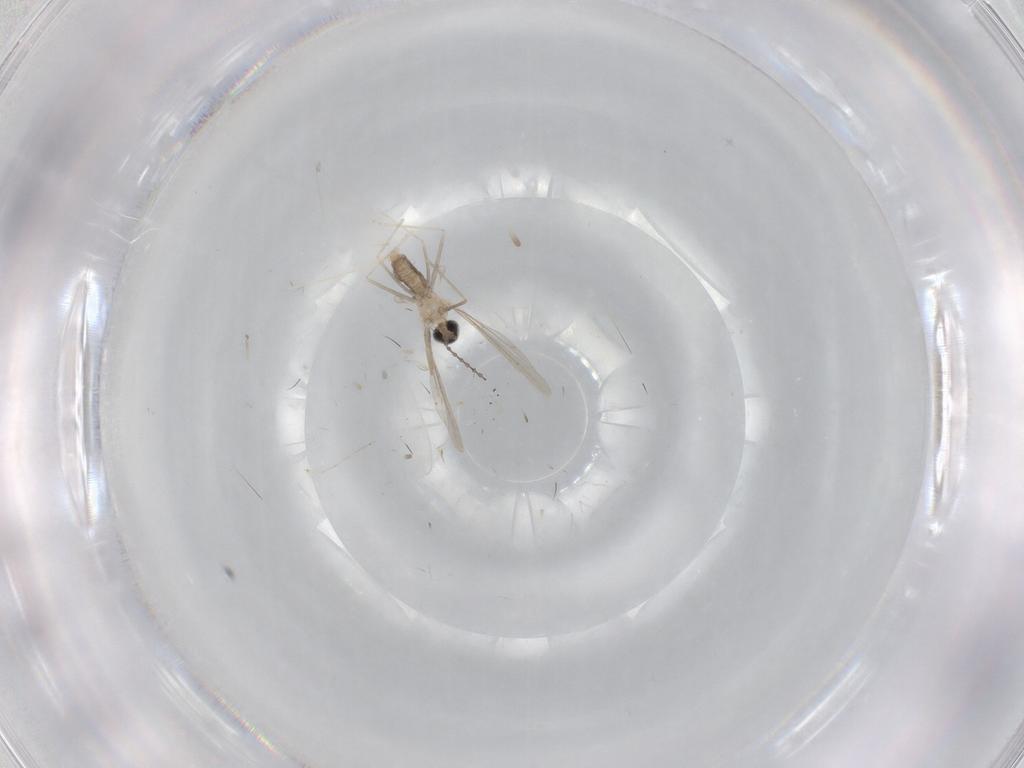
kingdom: Animalia
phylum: Arthropoda
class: Insecta
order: Diptera
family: Cecidomyiidae
